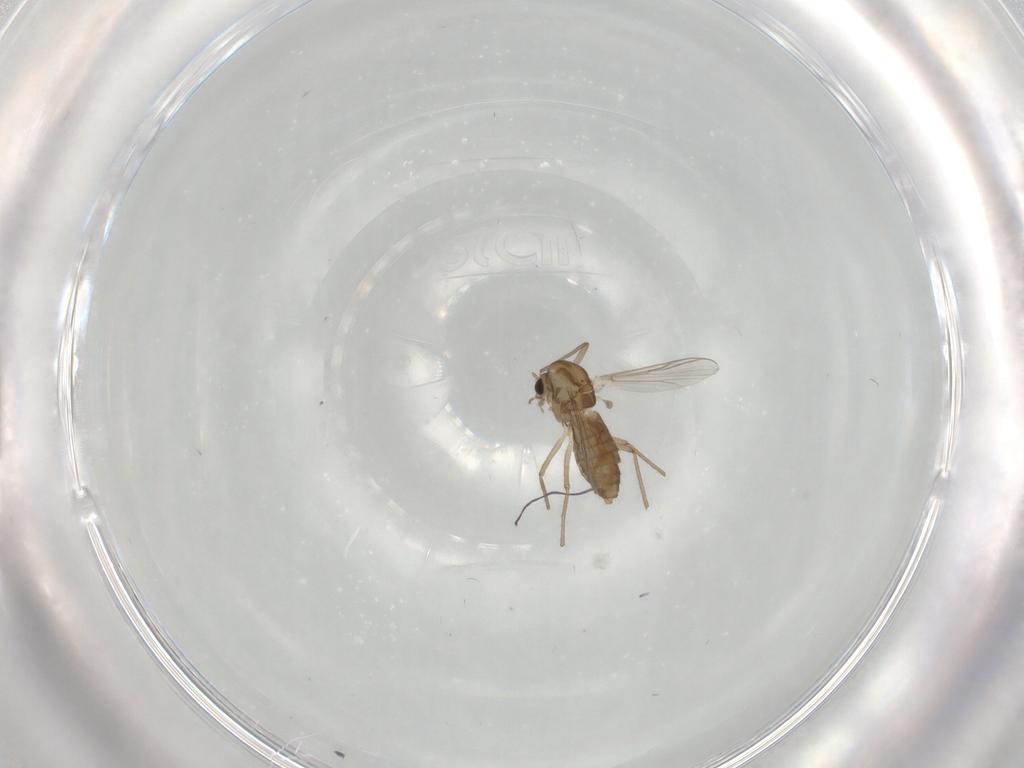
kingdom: Animalia
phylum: Arthropoda
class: Insecta
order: Diptera
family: Chironomidae
